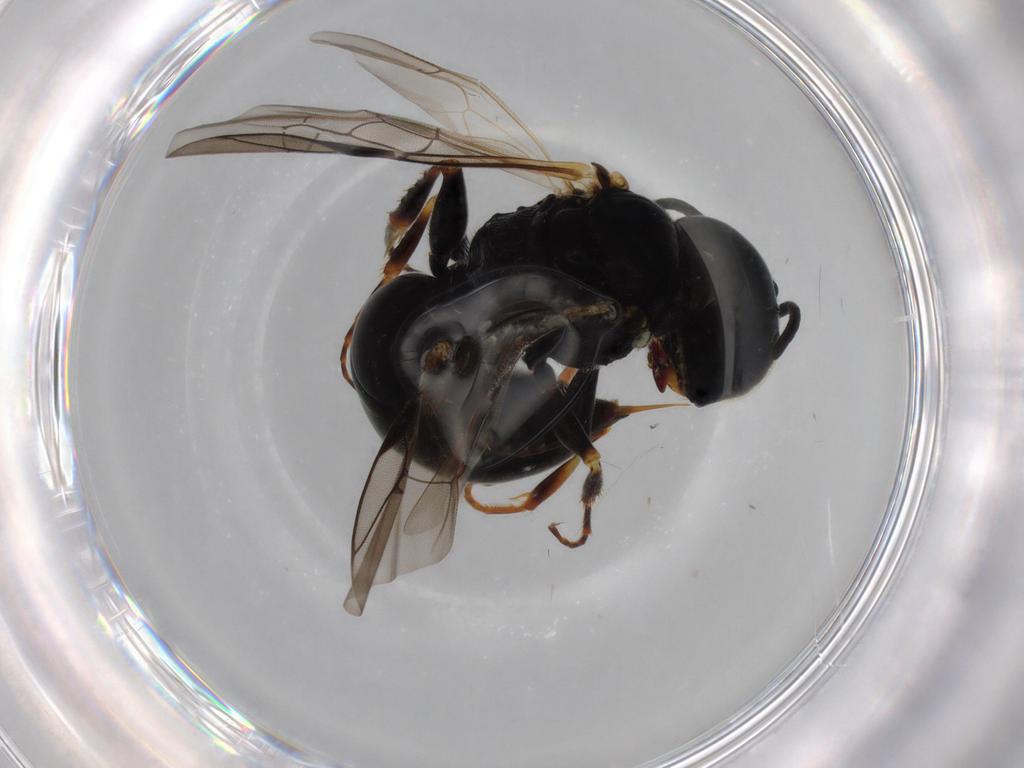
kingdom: Animalia
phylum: Arthropoda
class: Insecta
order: Hymenoptera
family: Crabronidae
